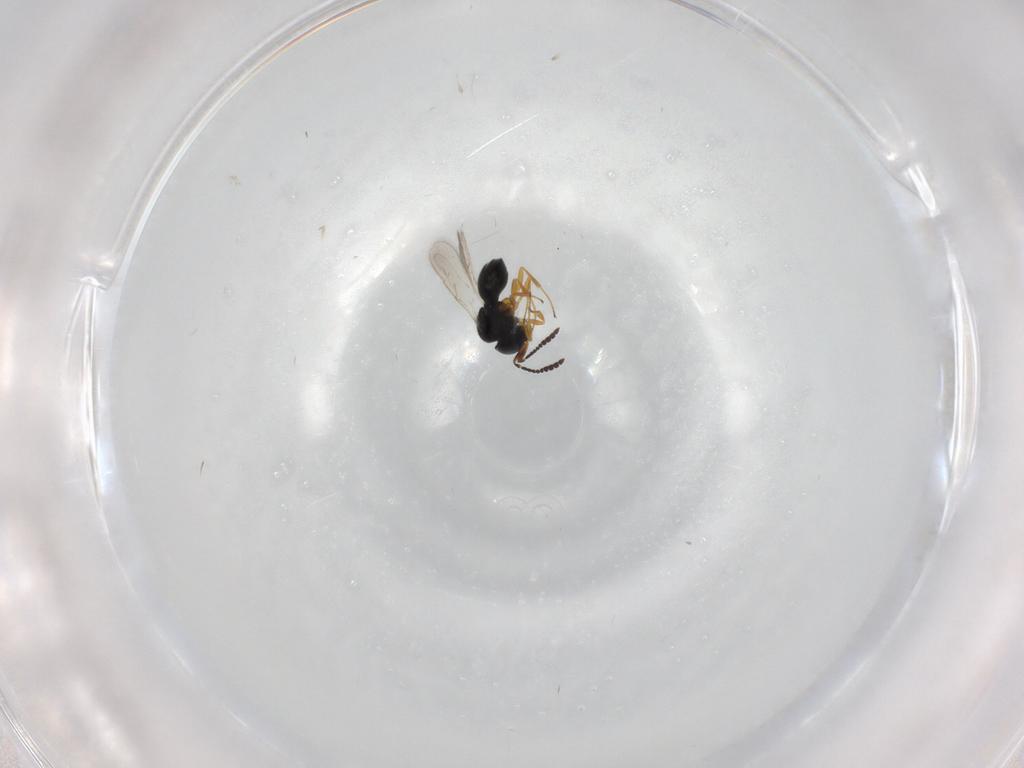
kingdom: Animalia
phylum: Arthropoda
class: Insecta
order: Hymenoptera
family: Scelionidae
